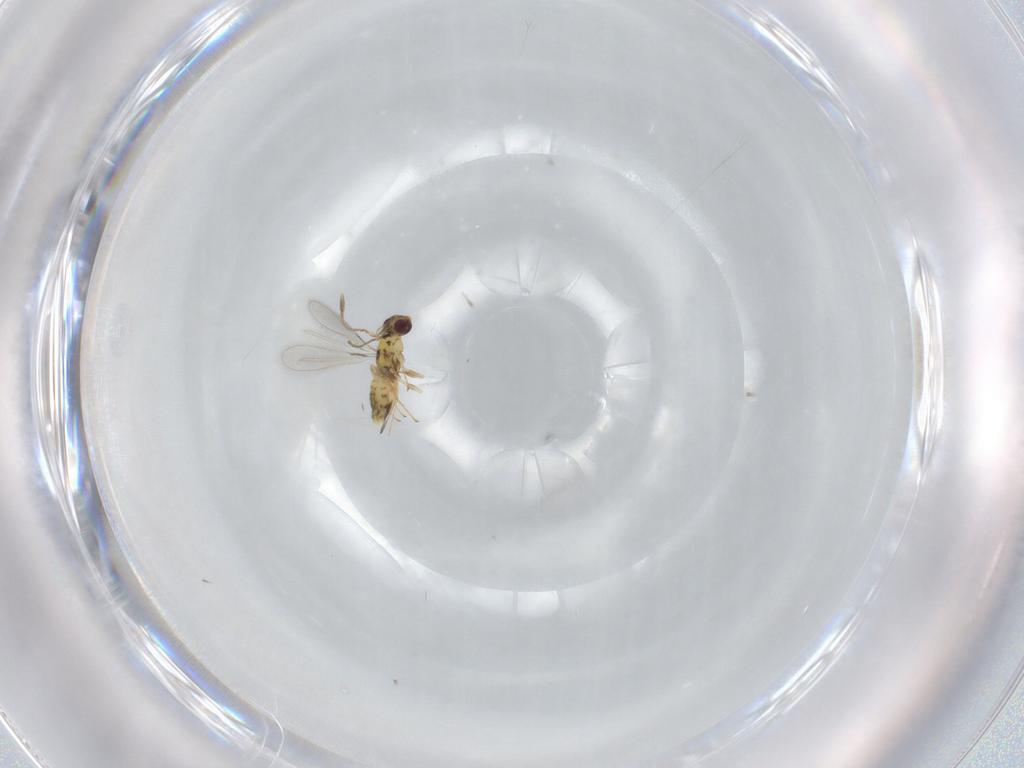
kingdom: Animalia
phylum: Arthropoda
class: Insecta
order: Hymenoptera
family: Mymaridae
